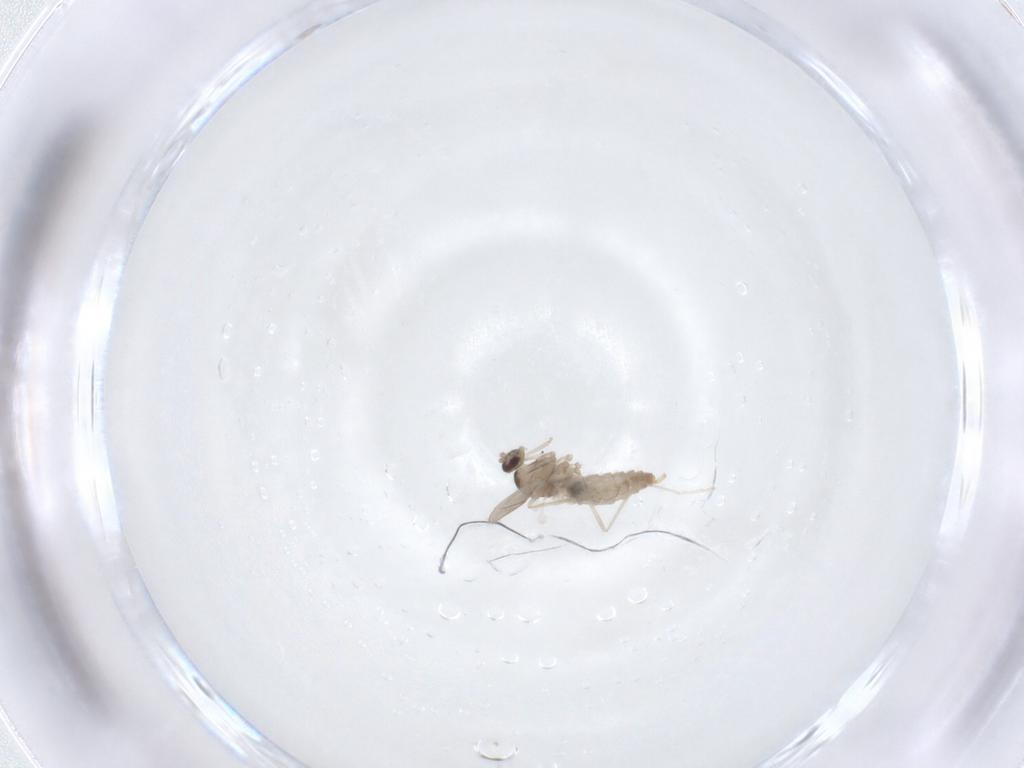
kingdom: Animalia
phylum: Arthropoda
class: Insecta
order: Diptera
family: Cecidomyiidae
